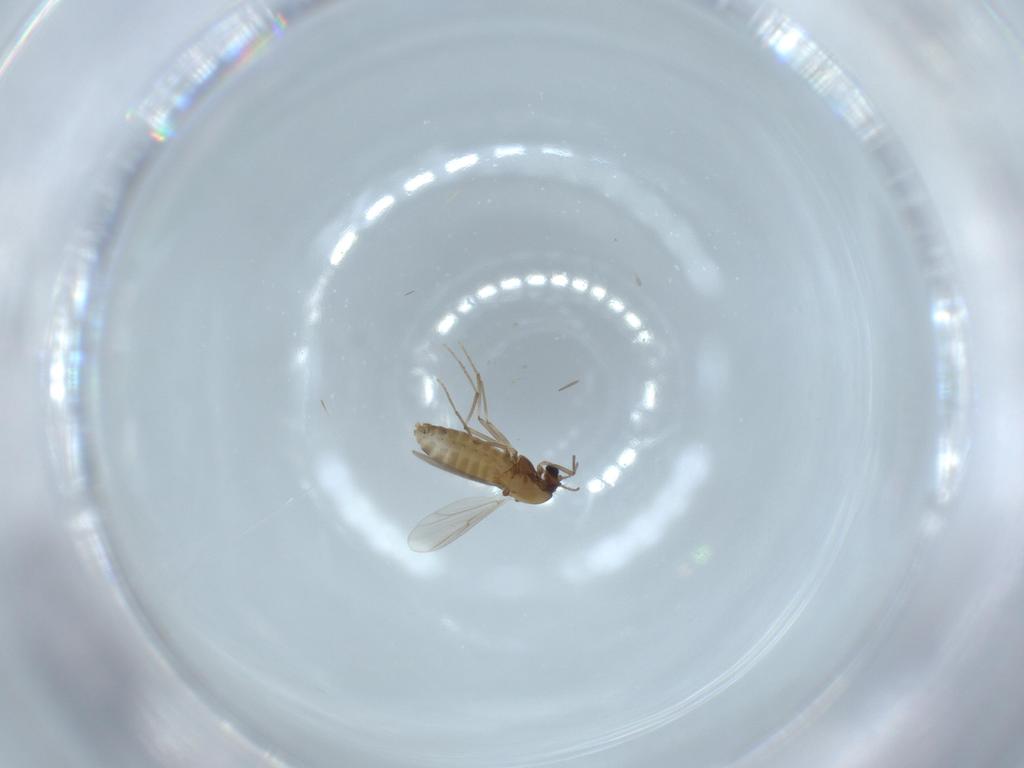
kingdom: Animalia
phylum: Arthropoda
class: Insecta
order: Diptera
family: Chironomidae
